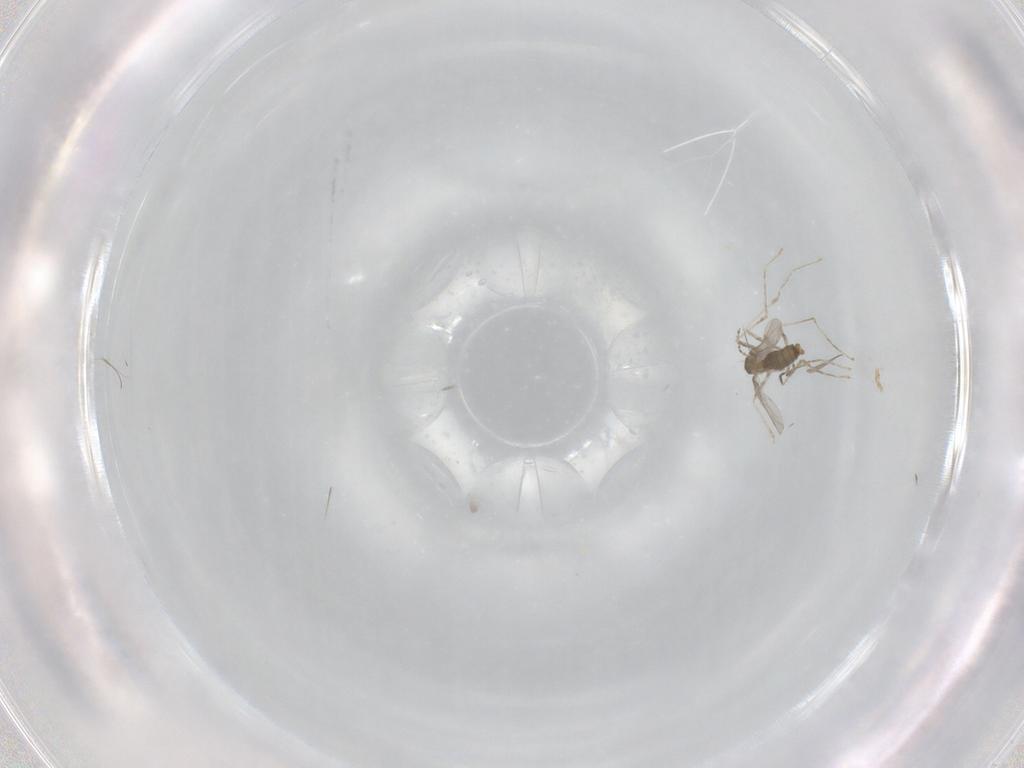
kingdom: Animalia
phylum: Arthropoda
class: Insecta
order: Diptera
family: Cecidomyiidae
